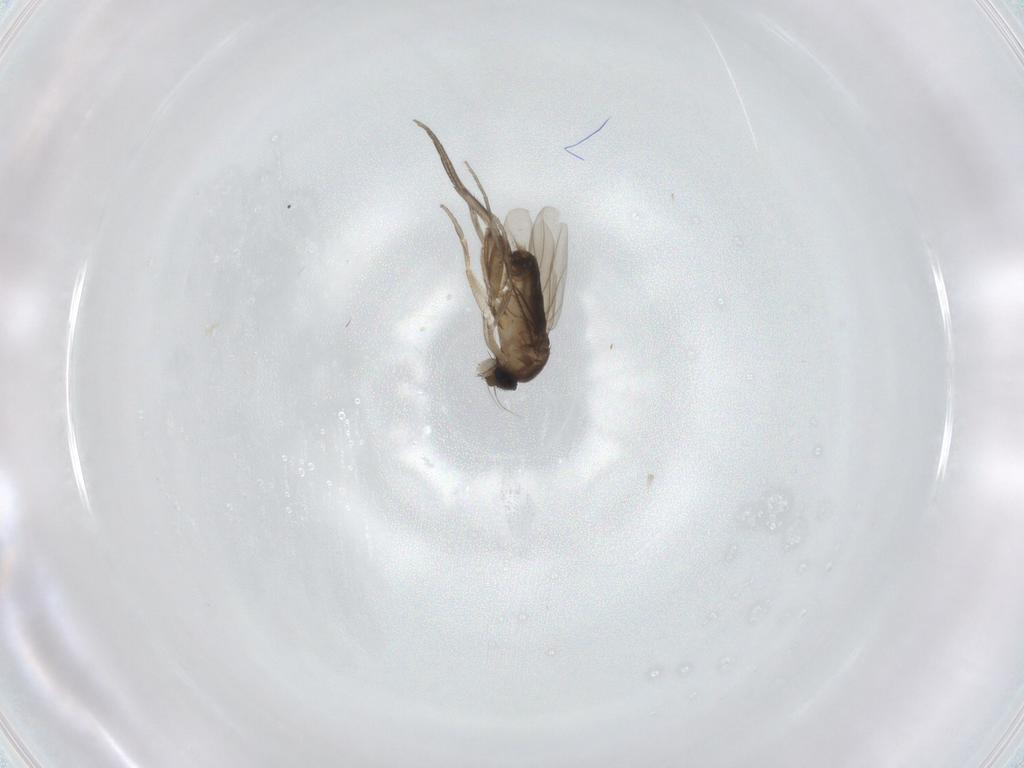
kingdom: Animalia
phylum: Arthropoda
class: Insecta
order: Diptera
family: Phoridae
